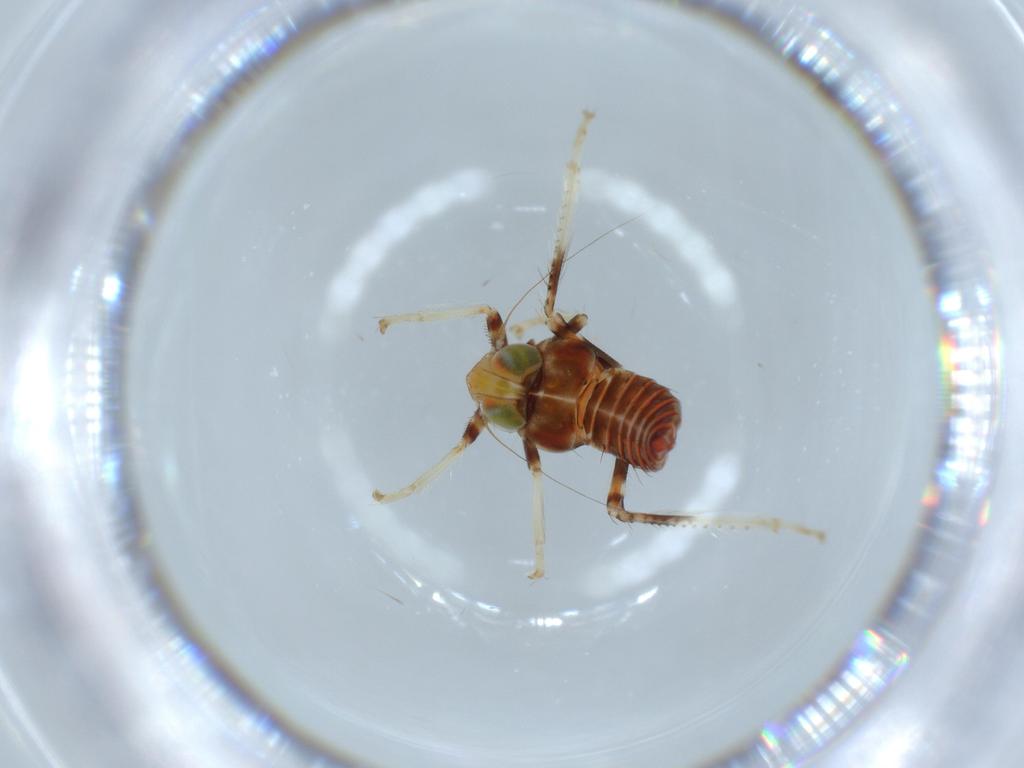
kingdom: Animalia
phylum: Arthropoda
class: Insecta
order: Hemiptera
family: Cicadellidae
